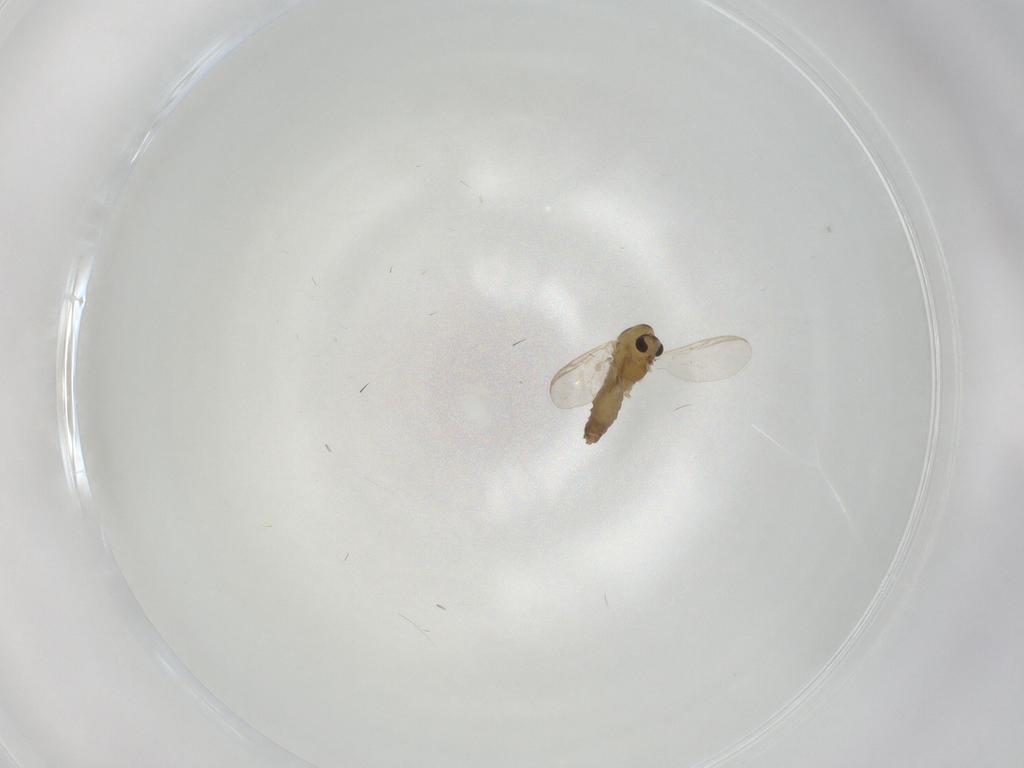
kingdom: Animalia
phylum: Arthropoda
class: Insecta
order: Diptera
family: Chironomidae
